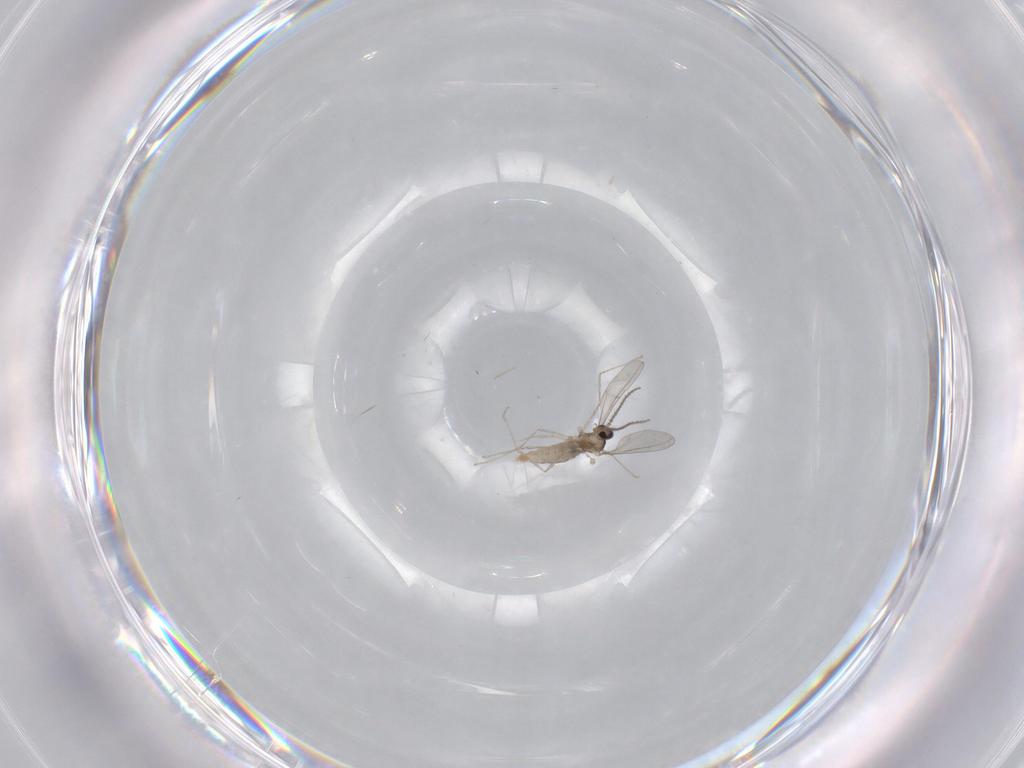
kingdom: Animalia
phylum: Arthropoda
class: Insecta
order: Diptera
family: Cecidomyiidae
